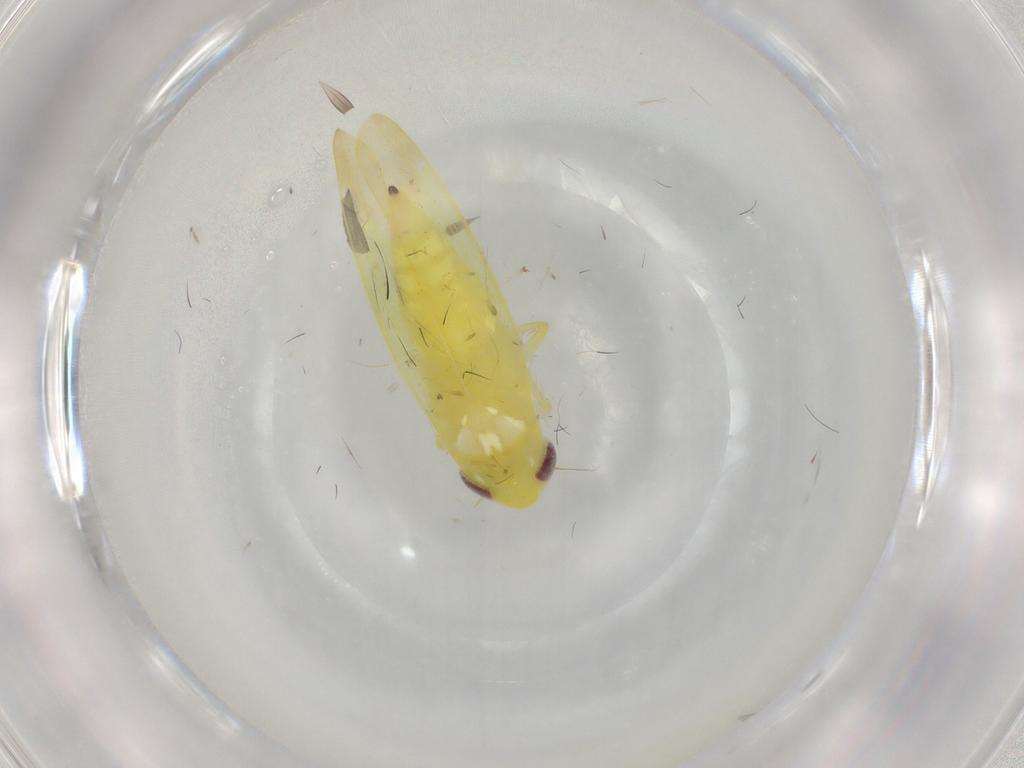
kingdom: Animalia
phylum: Arthropoda
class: Insecta
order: Hemiptera
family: Cicadellidae
